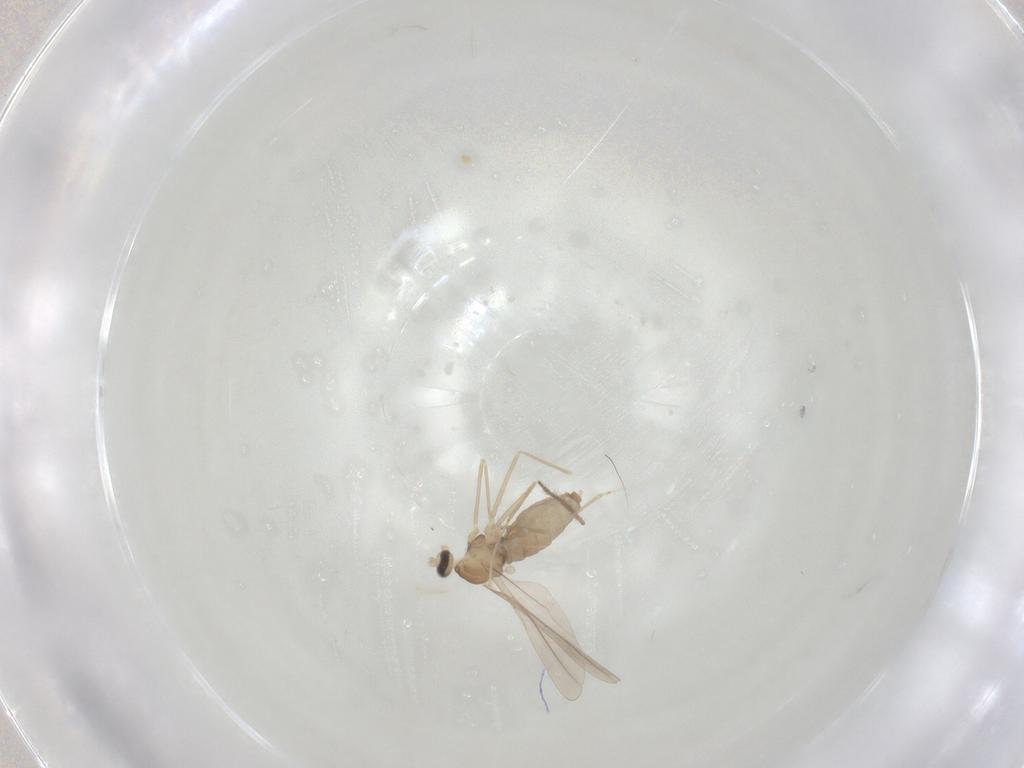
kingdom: Animalia
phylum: Arthropoda
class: Insecta
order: Diptera
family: Cecidomyiidae
